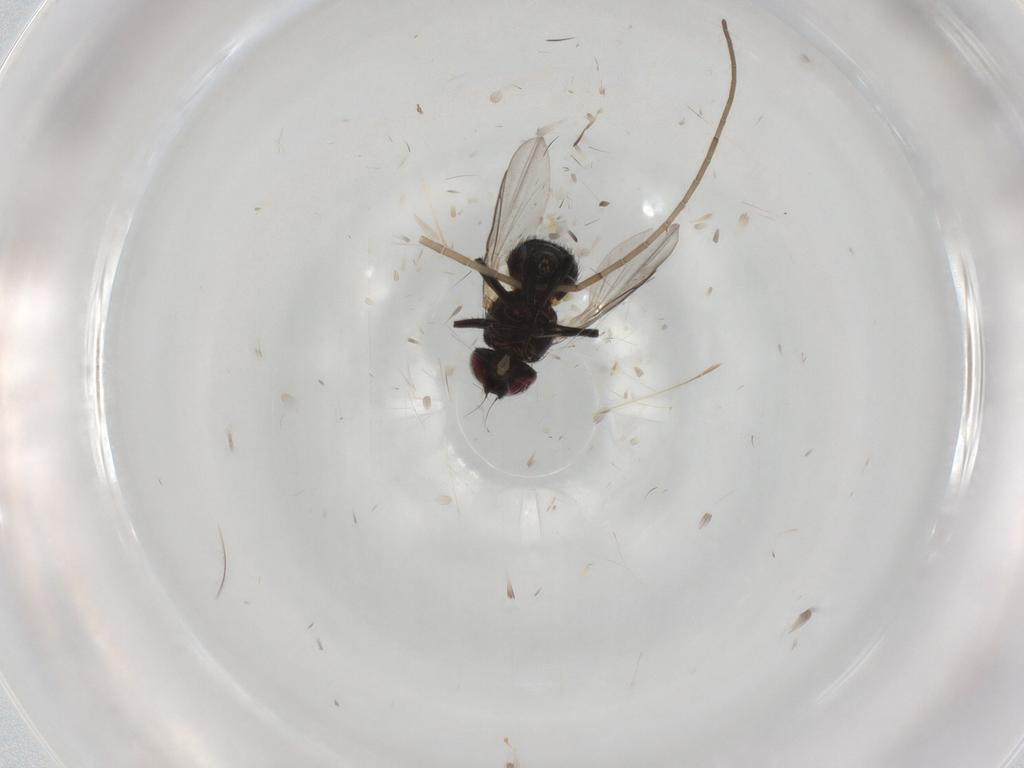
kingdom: Animalia
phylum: Arthropoda
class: Insecta
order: Diptera
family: Agromyzidae
